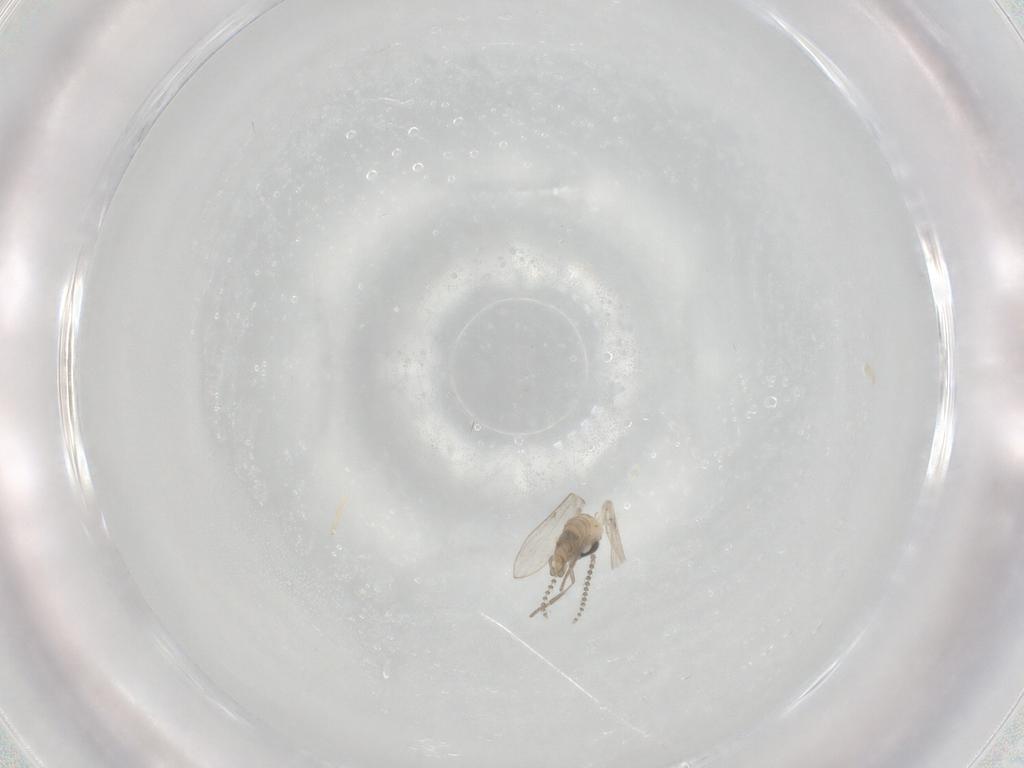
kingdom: Animalia
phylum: Arthropoda
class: Insecta
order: Diptera
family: Psychodidae
